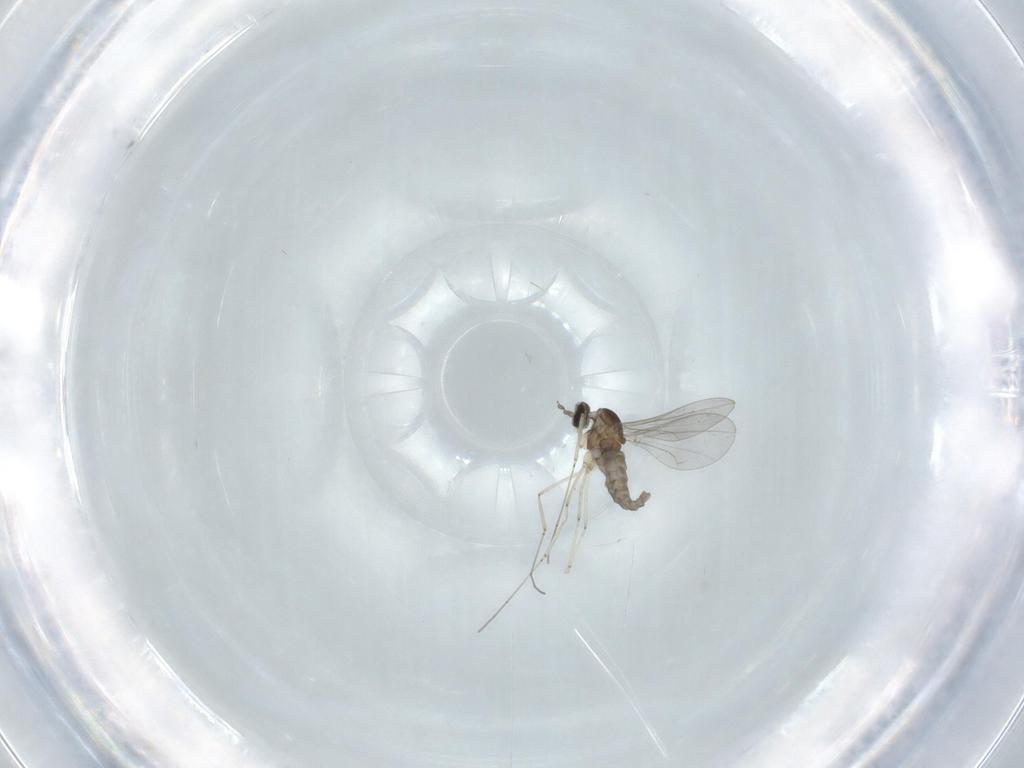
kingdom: Animalia
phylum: Arthropoda
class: Insecta
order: Diptera
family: Cecidomyiidae
